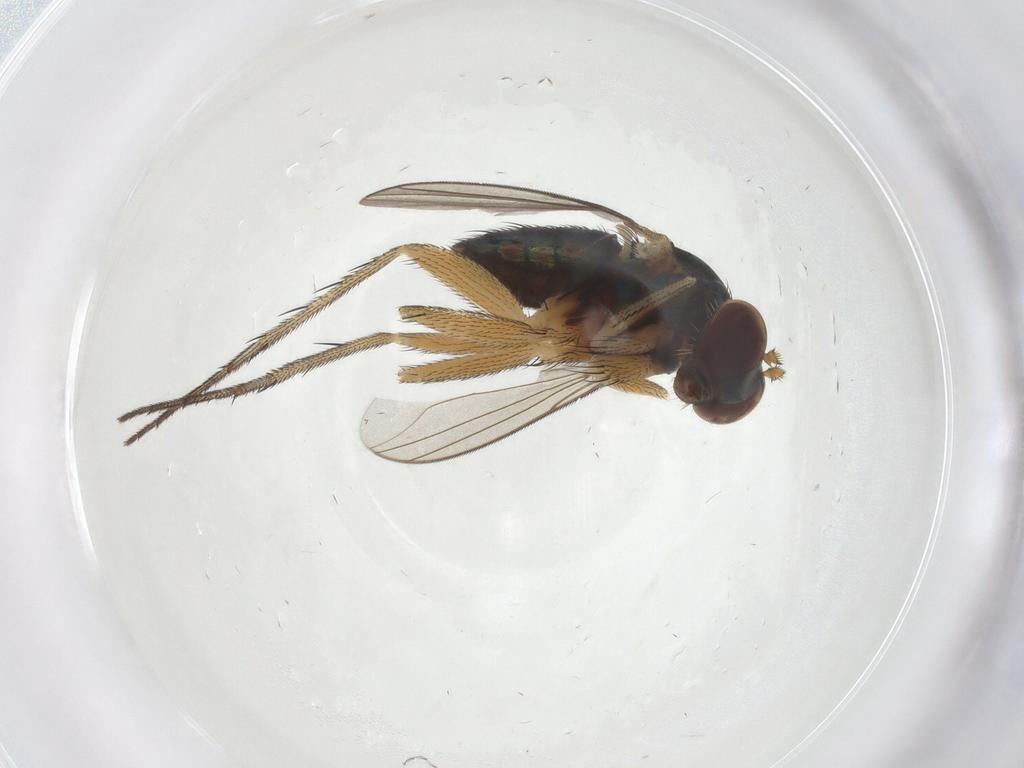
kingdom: Animalia
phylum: Arthropoda
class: Insecta
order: Diptera
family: Dolichopodidae
